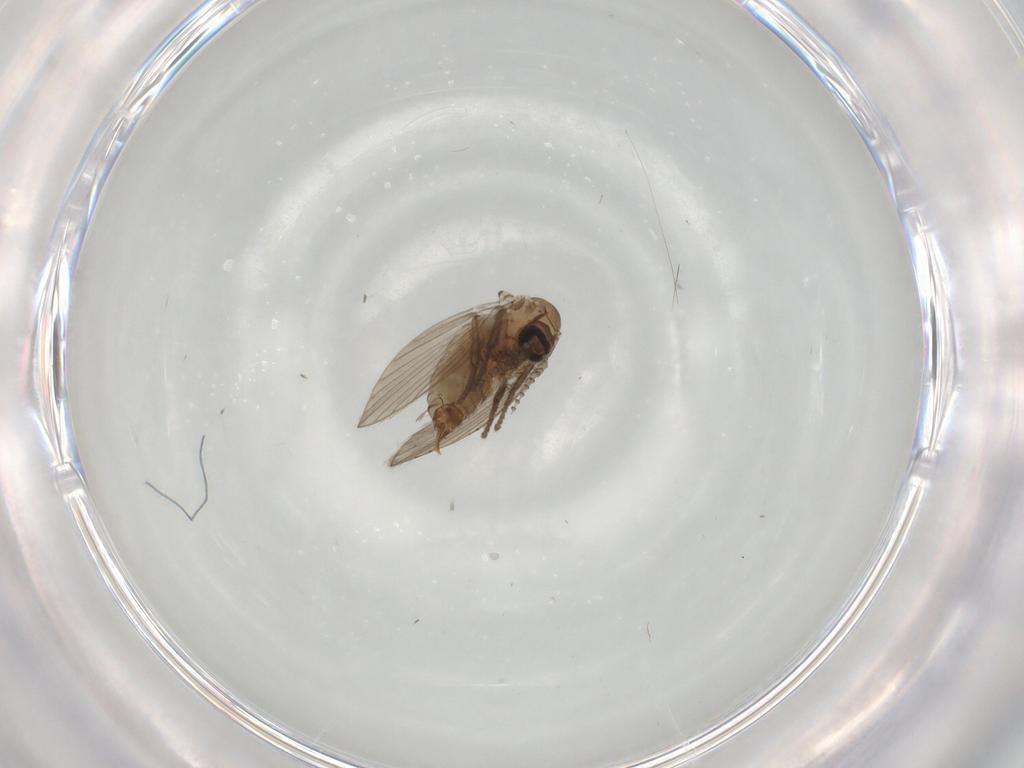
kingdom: Animalia
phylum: Arthropoda
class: Insecta
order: Diptera
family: Psychodidae
